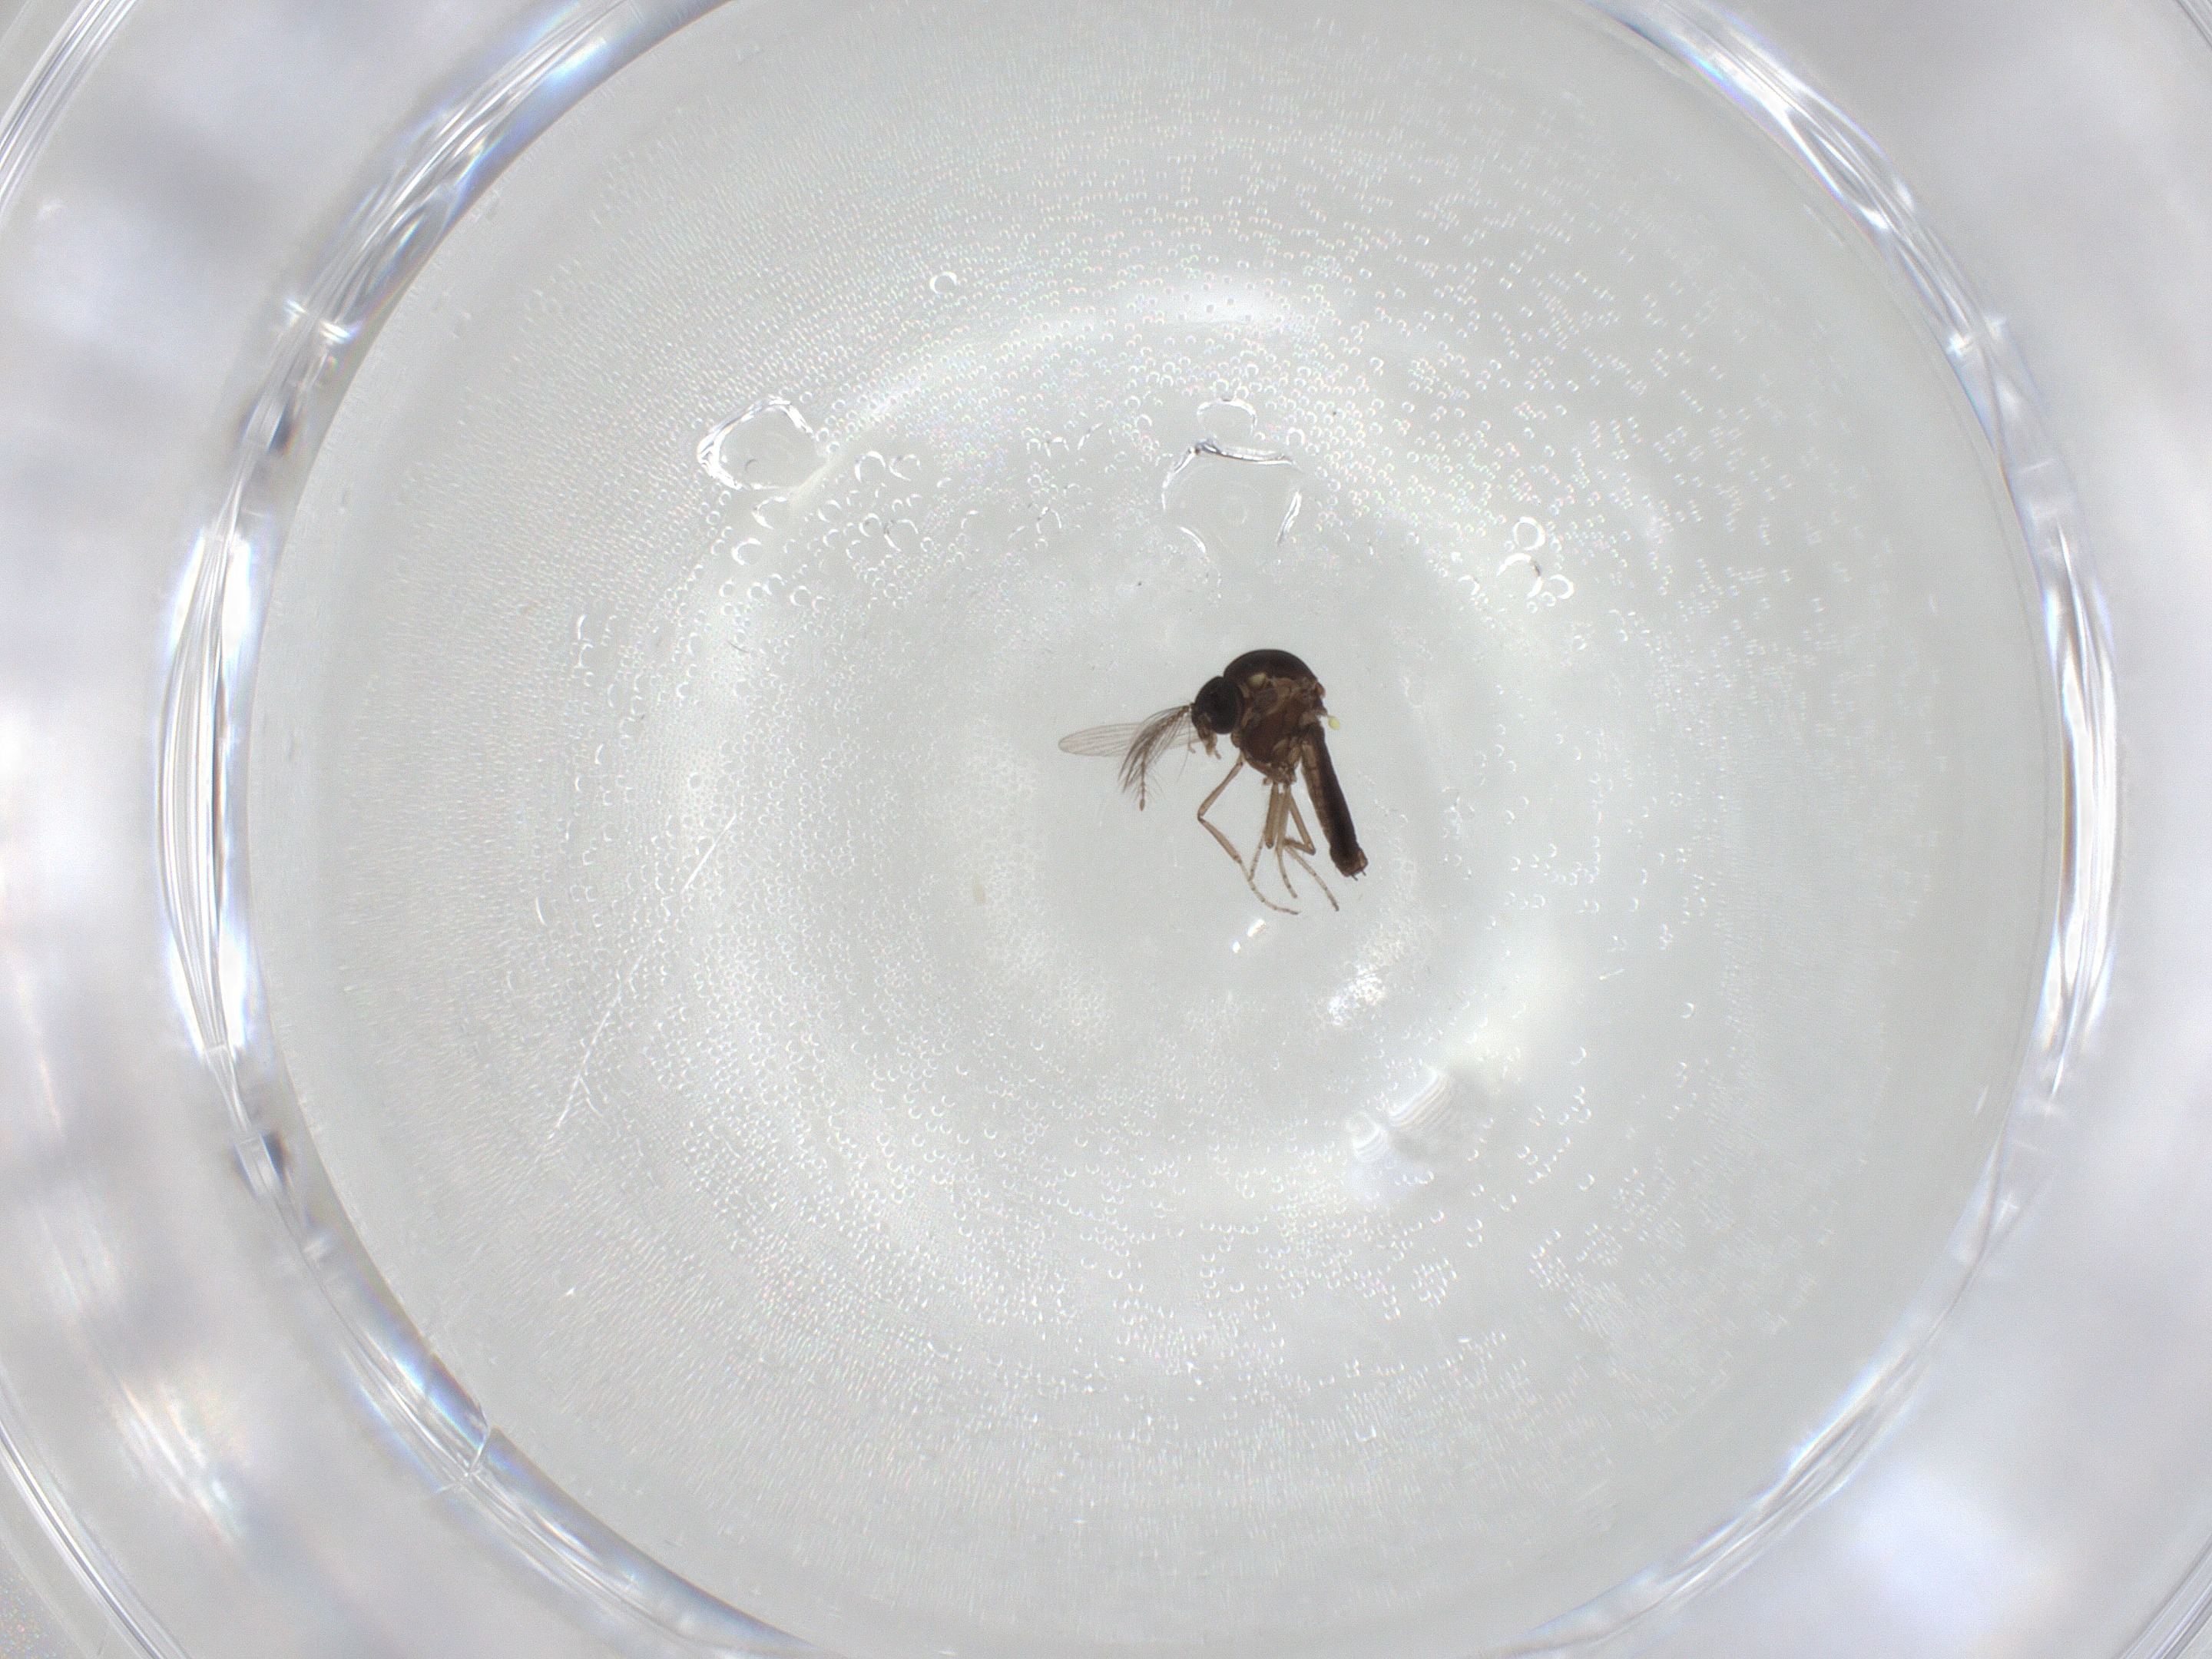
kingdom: Animalia
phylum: Arthropoda
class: Insecta
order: Diptera
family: Ceratopogonidae
